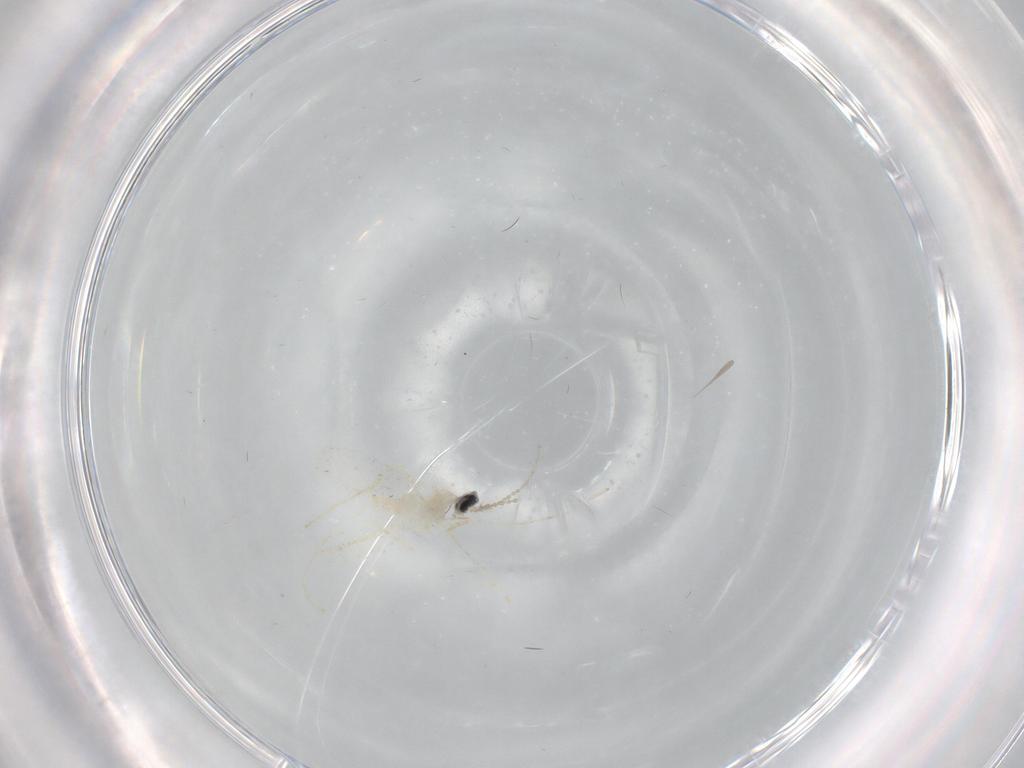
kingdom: Animalia
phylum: Arthropoda
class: Insecta
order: Diptera
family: Cecidomyiidae
